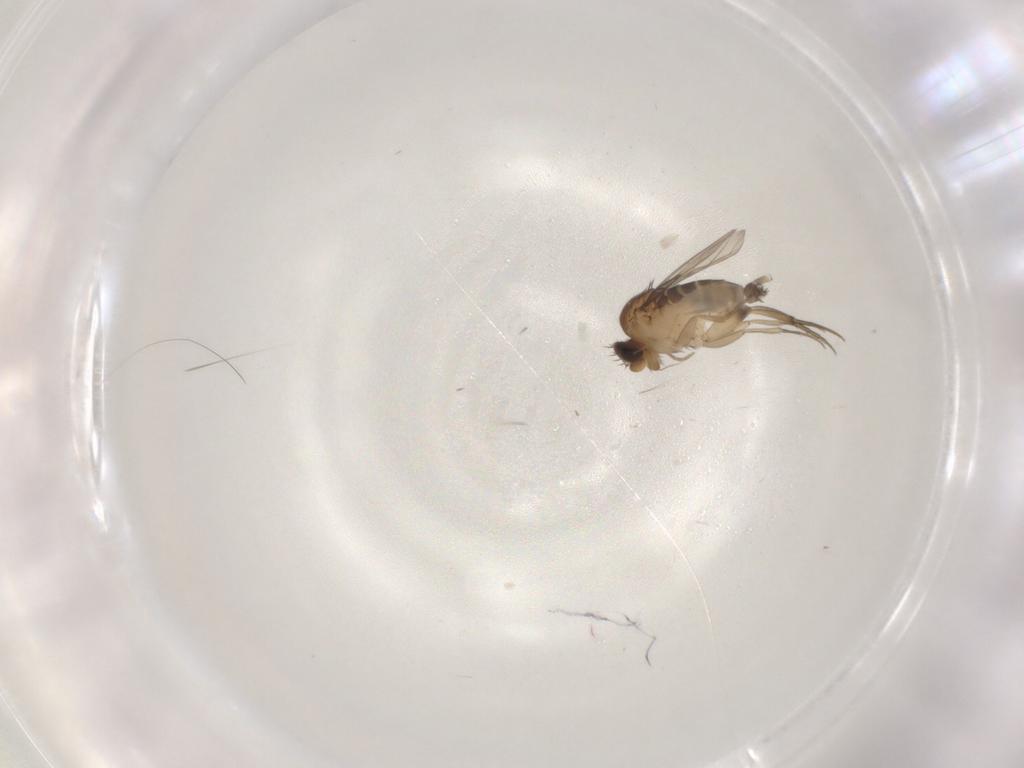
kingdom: Animalia
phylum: Arthropoda
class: Insecta
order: Diptera
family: Phoridae
